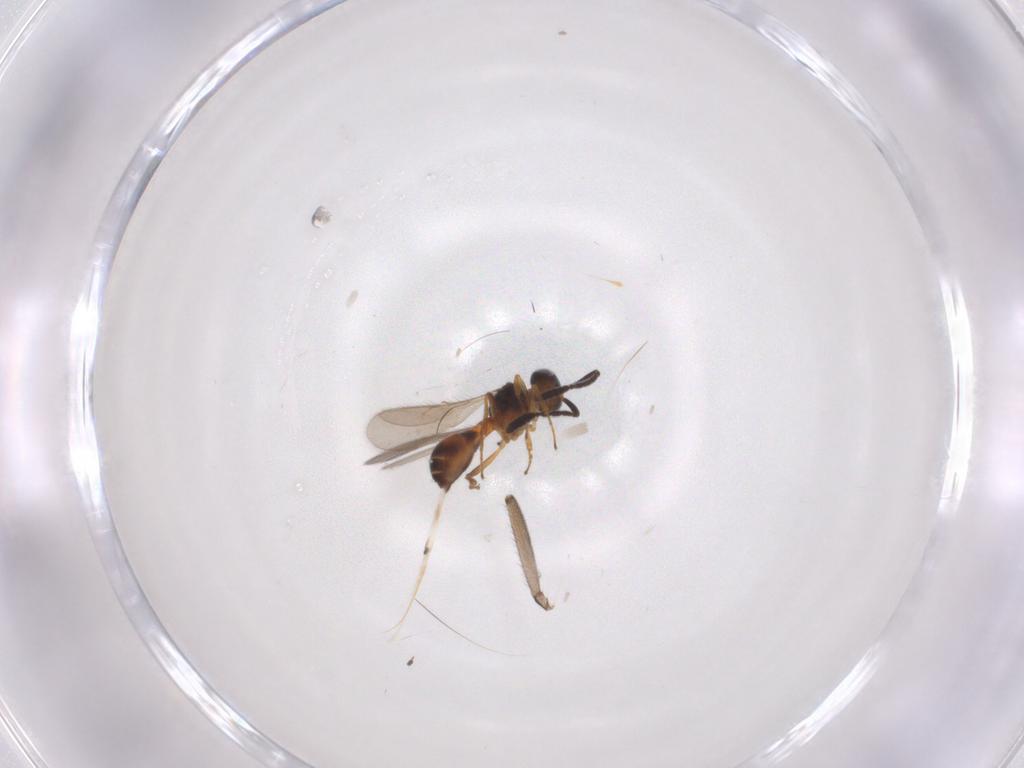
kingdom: Animalia
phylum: Arthropoda
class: Insecta
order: Hymenoptera
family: Scelionidae
